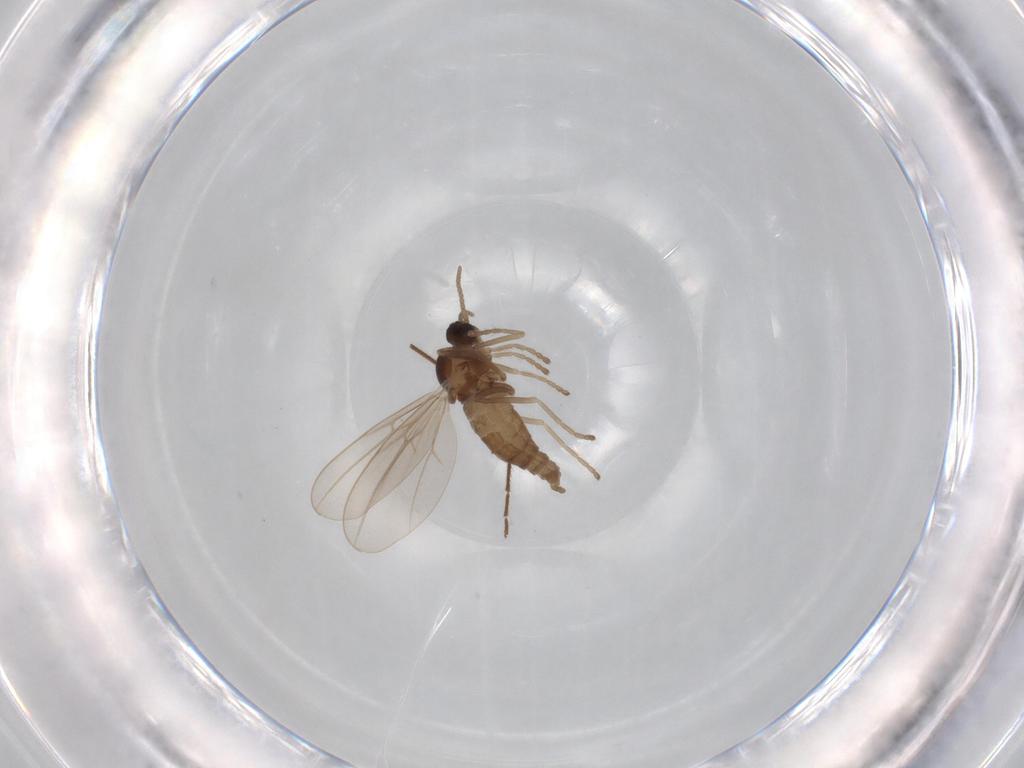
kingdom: Animalia
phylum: Arthropoda
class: Insecta
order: Diptera
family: Cecidomyiidae
